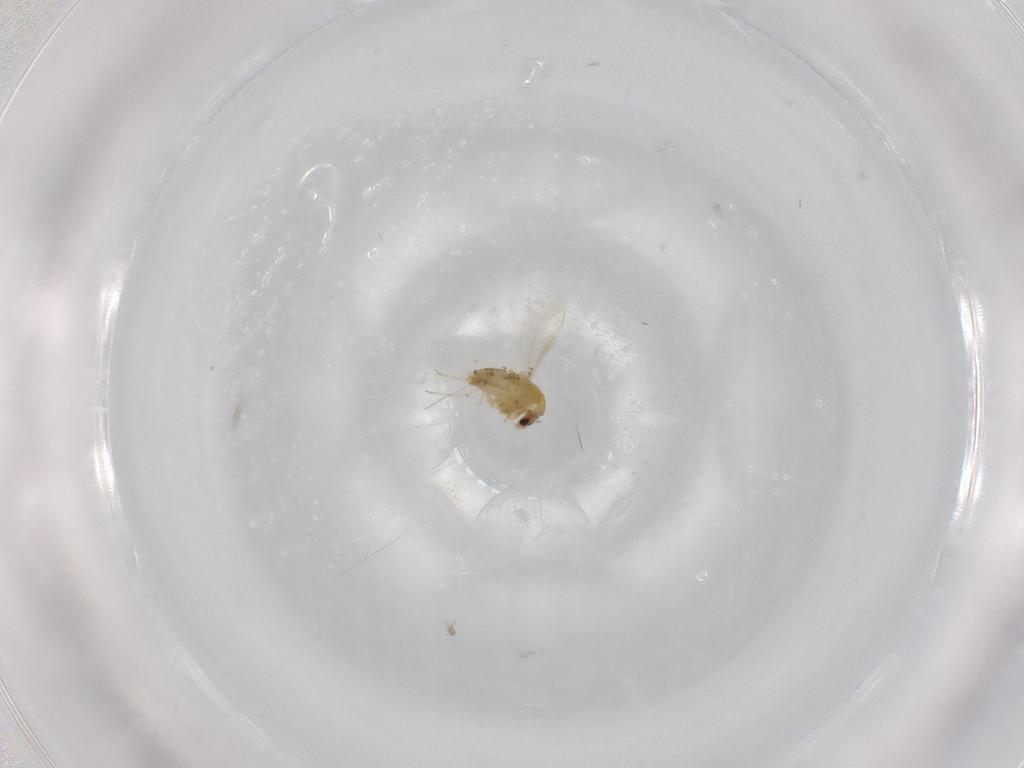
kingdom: Animalia
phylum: Arthropoda
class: Insecta
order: Diptera
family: Chironomidae
